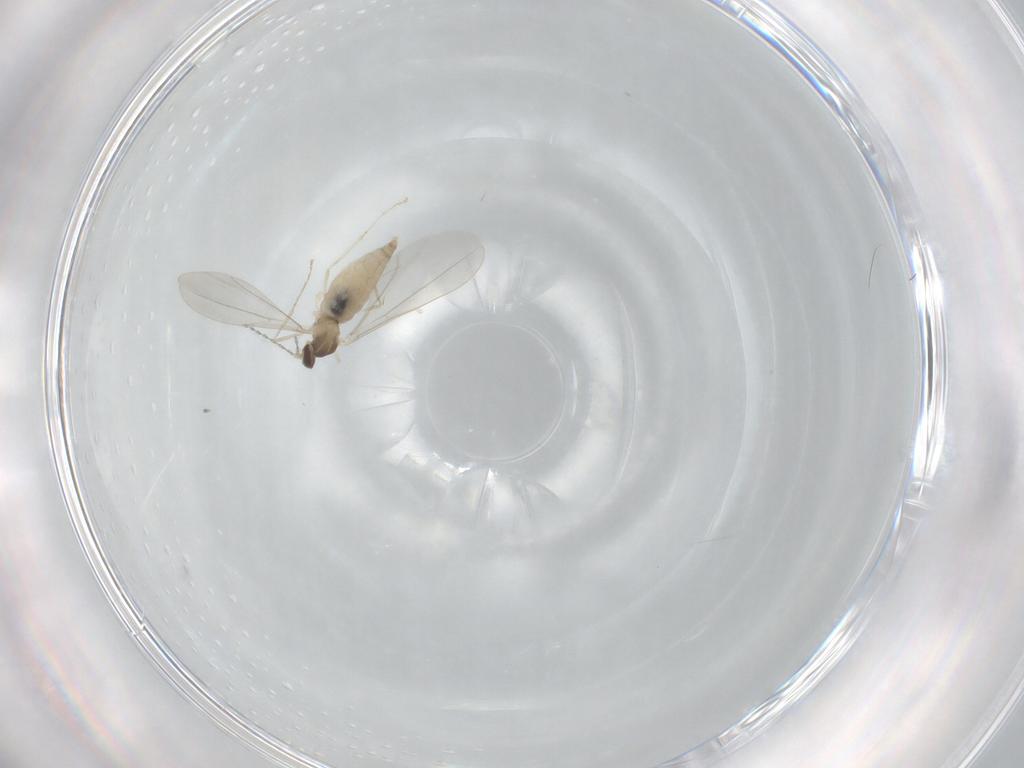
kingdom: Animalia
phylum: Arthropoda
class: Insecta
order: Diptera
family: Cecidomyiidae
